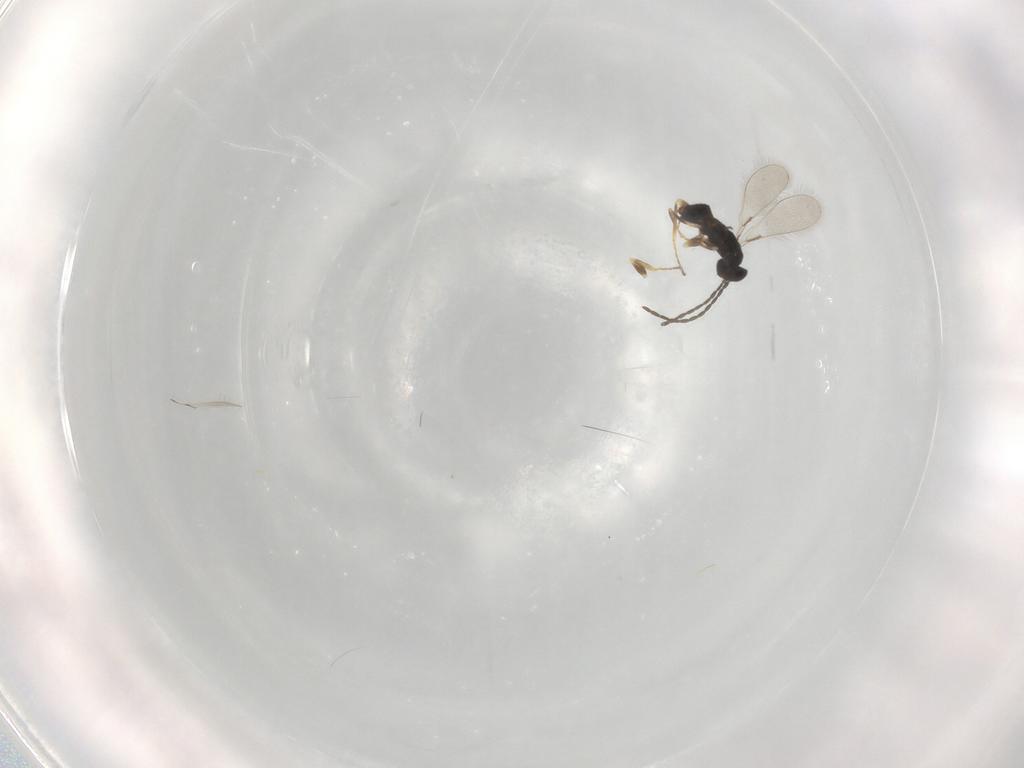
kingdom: Animalia
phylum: Arthropoda
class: Insecta
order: Hymenoptera
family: Mymaridae
